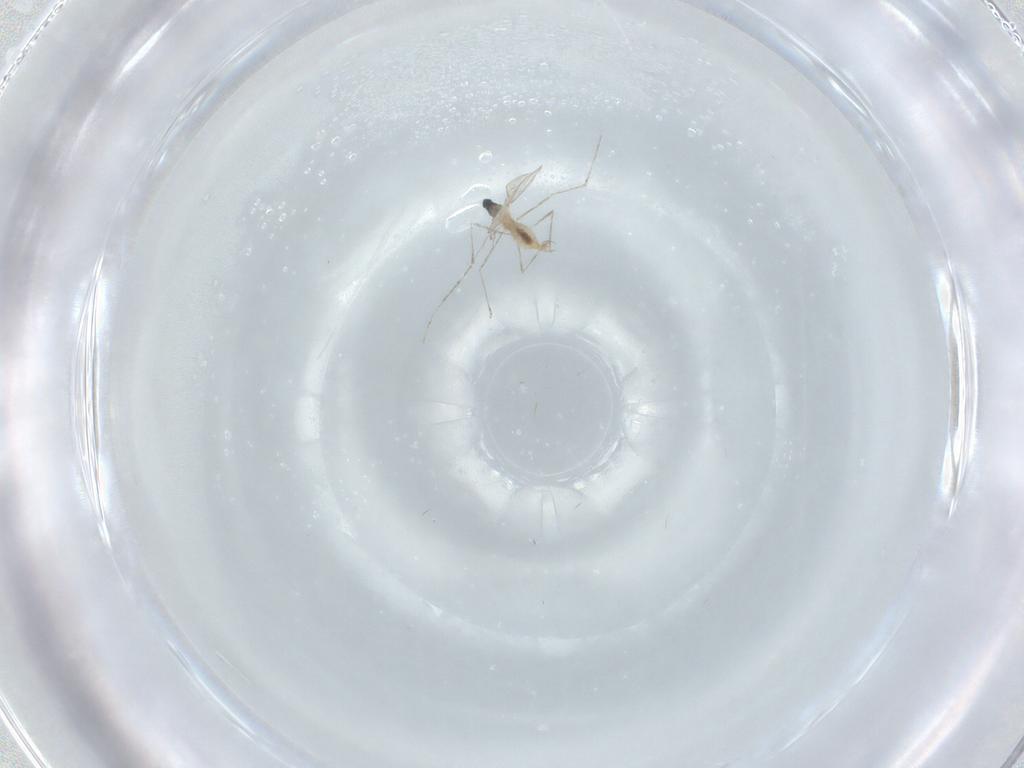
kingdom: Animalia
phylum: Arthropoda
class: Insecta
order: Diptera
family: Cecidomyiidae
